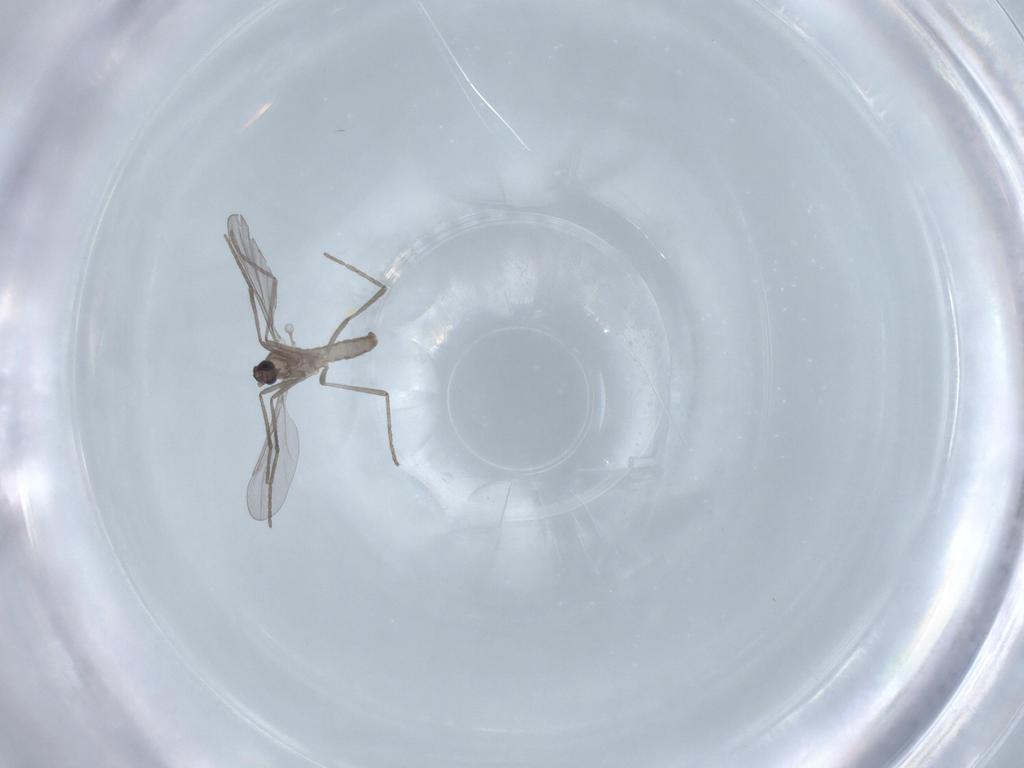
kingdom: Animalia
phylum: Arthropoda
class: Insecta
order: Diptera
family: Cecidomyiidae
